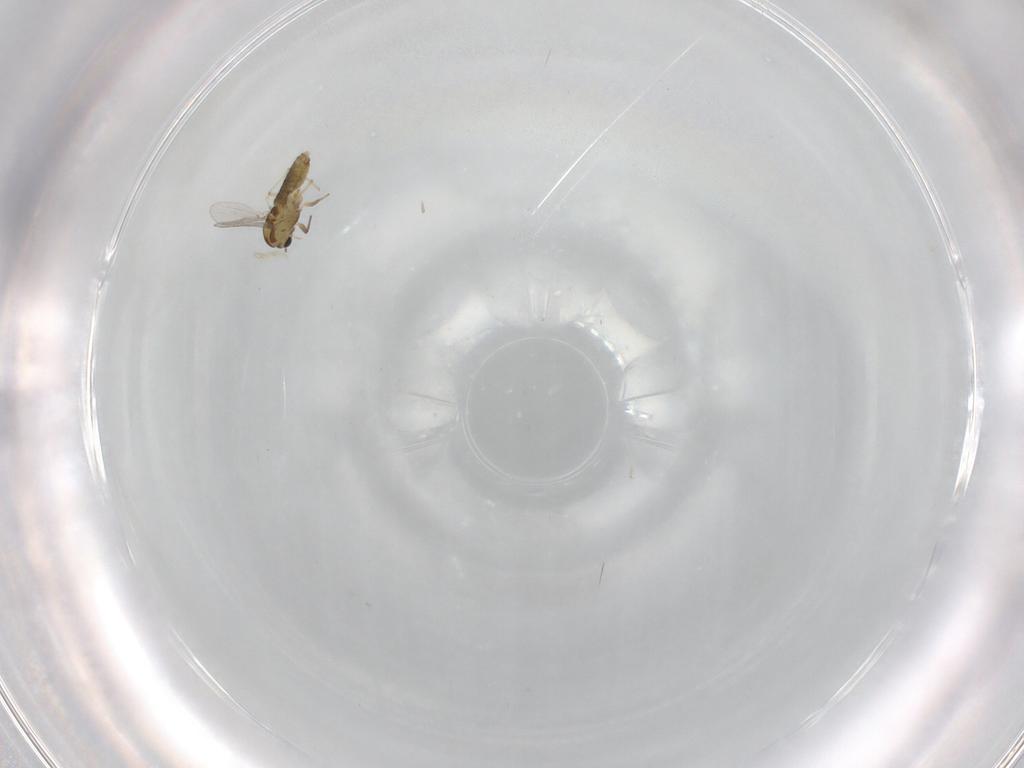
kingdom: Animalia
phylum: Arthropoda
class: Insecta
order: Diptera
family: Chironomidae
